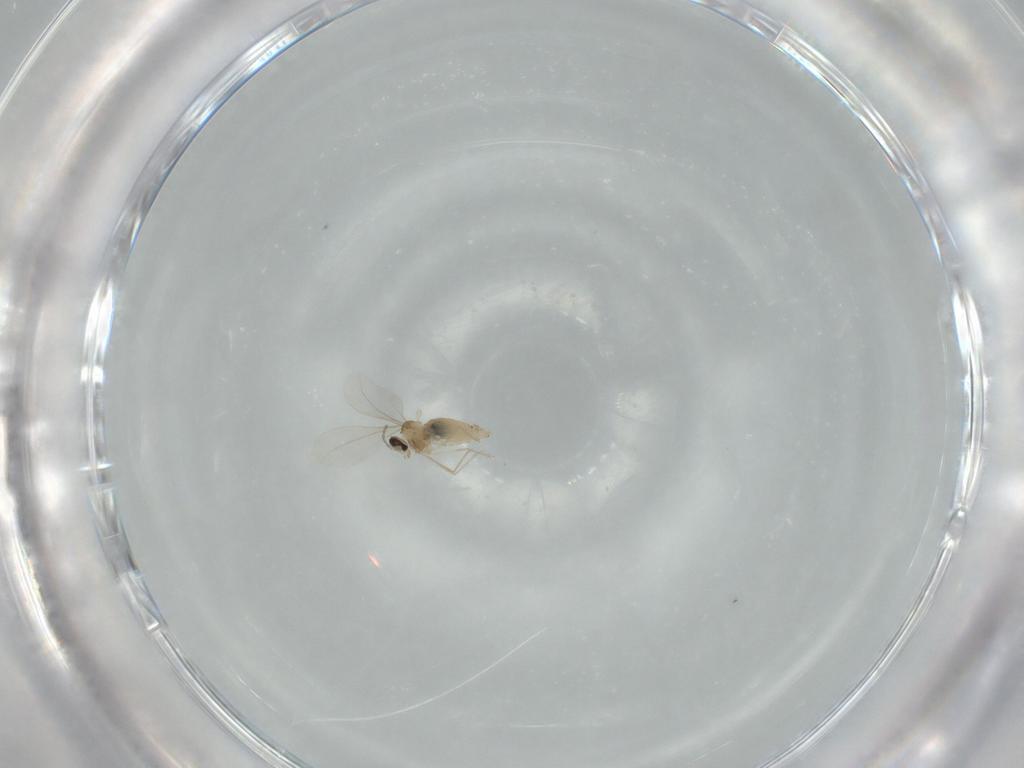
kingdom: Animalia
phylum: Arthropoda
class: Insecta
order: Diptera
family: Cecidomyiidae
